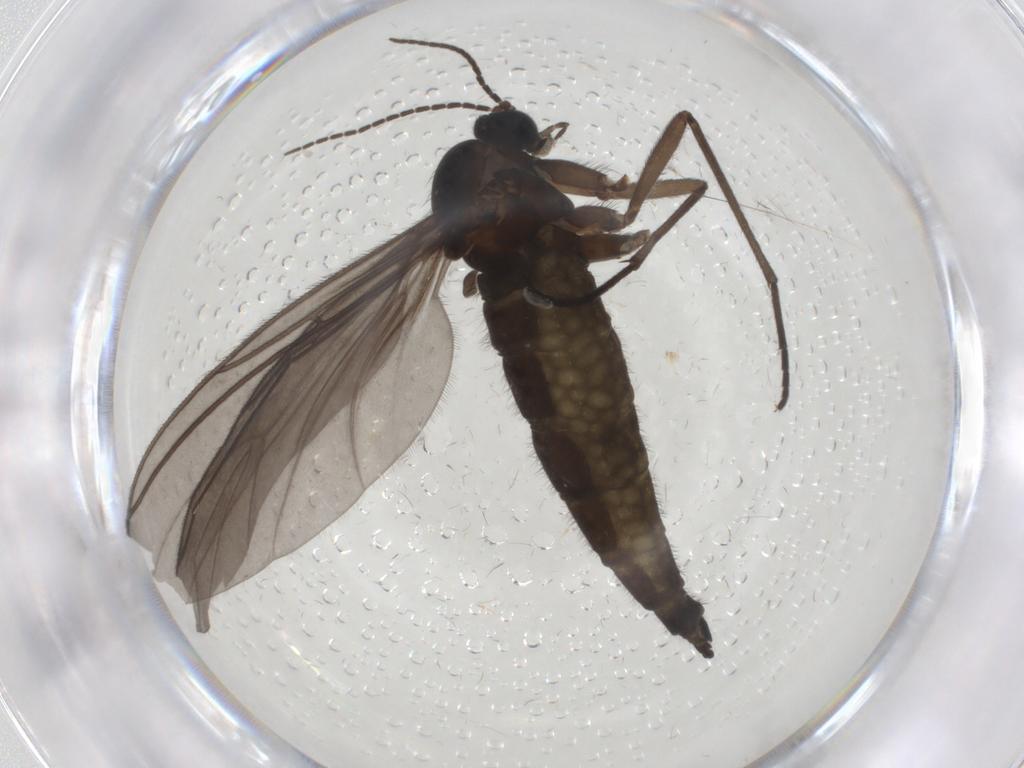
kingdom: Animalia
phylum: Arthropoda
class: Insecta
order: Diptera
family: Sciaridae
